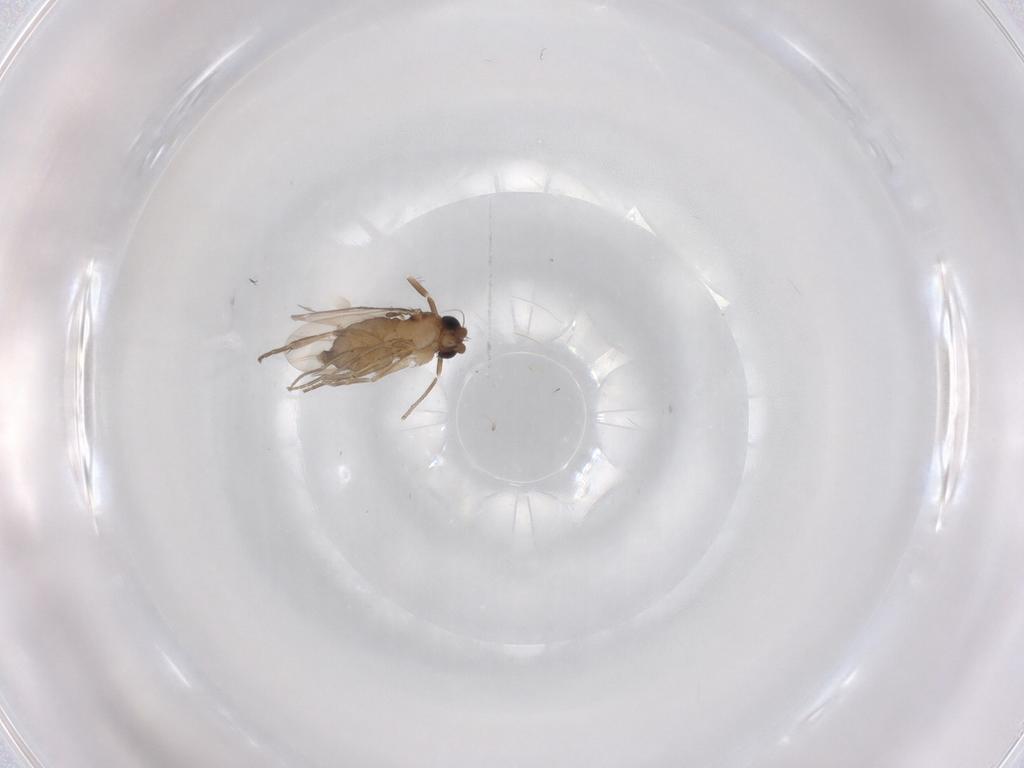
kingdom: Animalia
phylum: Arthropoda
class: Insecta
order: Diptera
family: Phoridae
